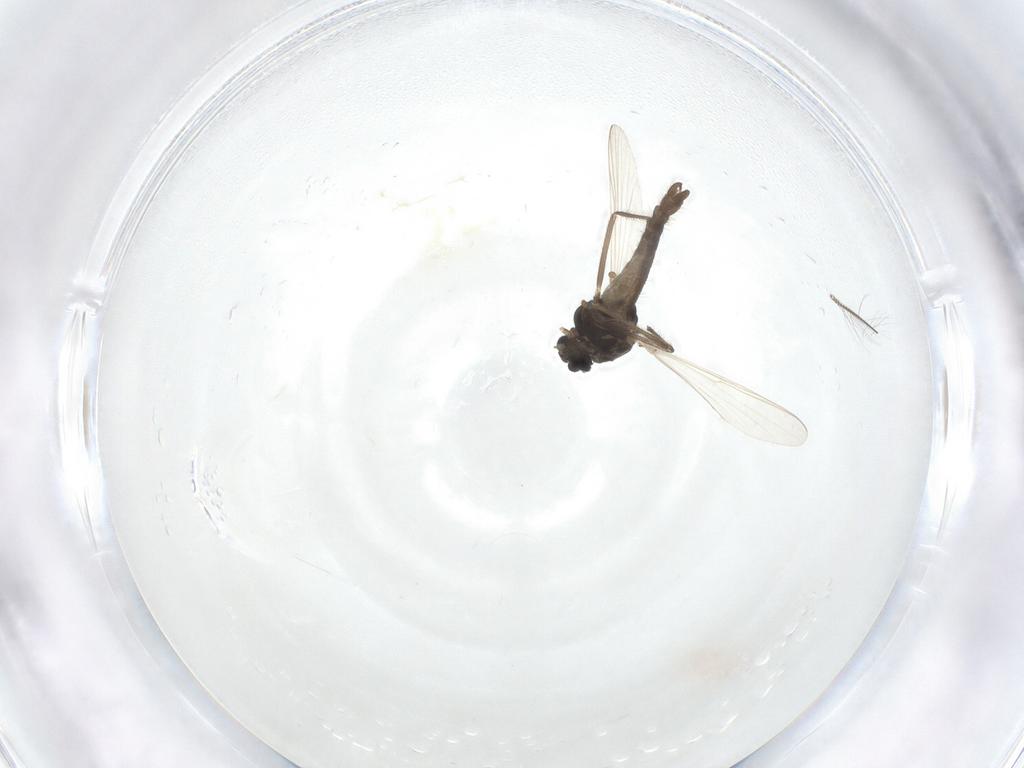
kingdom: Animalia
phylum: Arthropoda
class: Insecta
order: Diptera
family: Chironomidae
